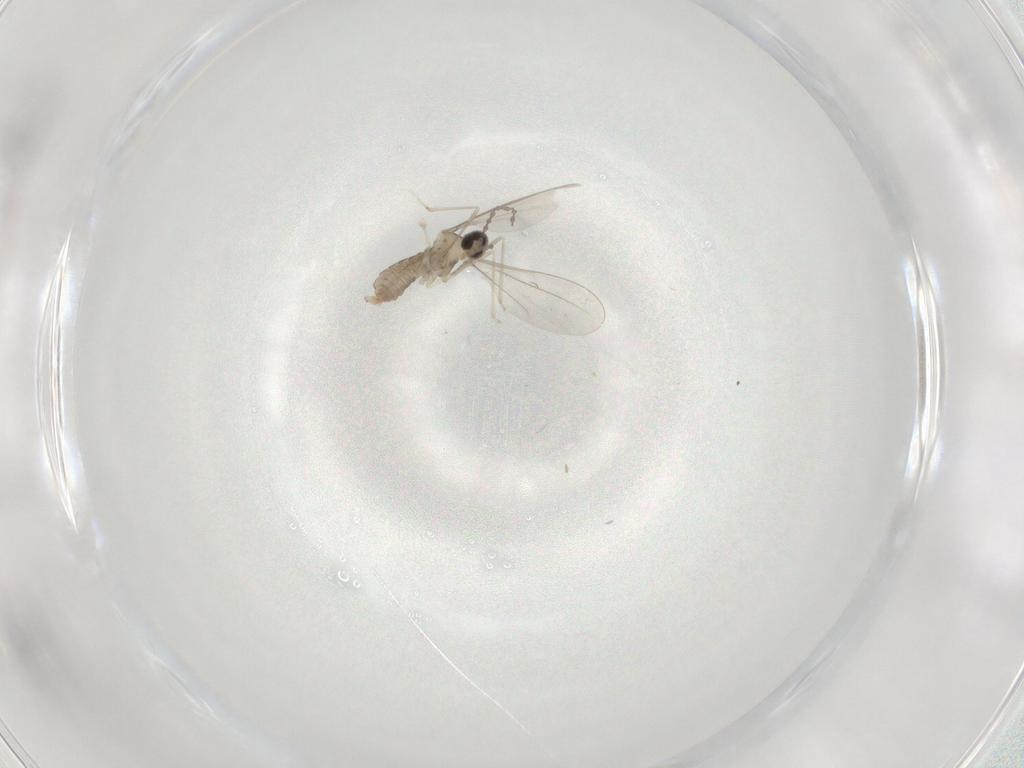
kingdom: Animalia
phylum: Arthropoda
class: Insecta
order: Diptera
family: Cecidomyiidae
